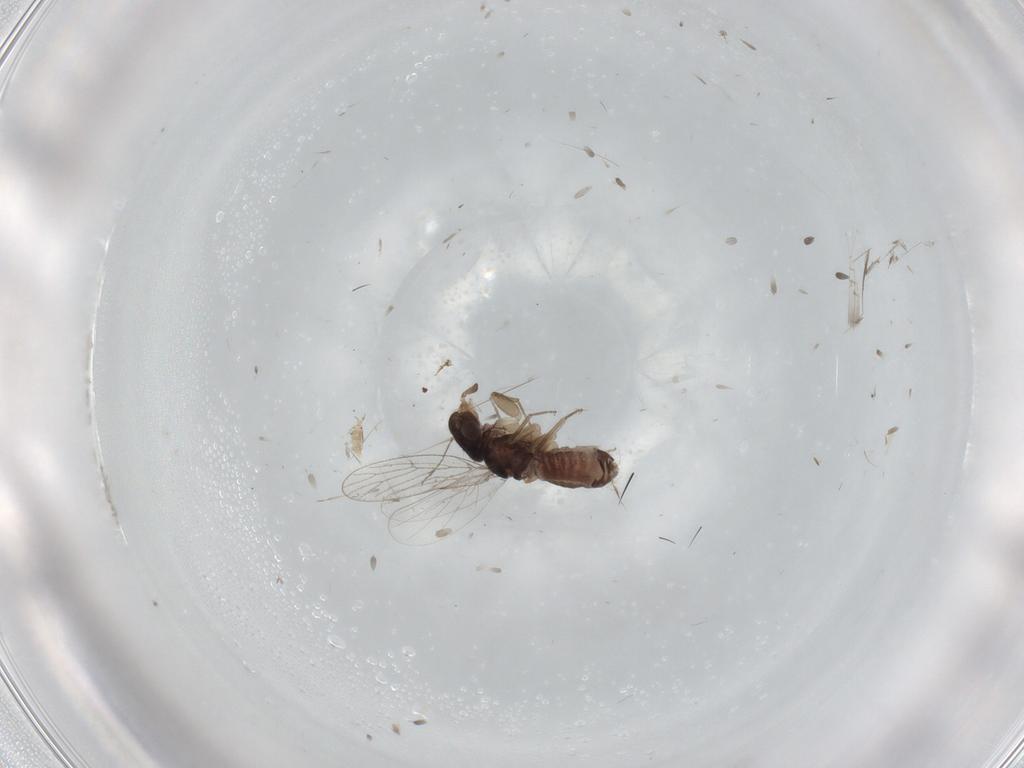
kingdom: Animalia
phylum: Arthropoda
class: Insecta
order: Psocodea
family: Psoquillidae
